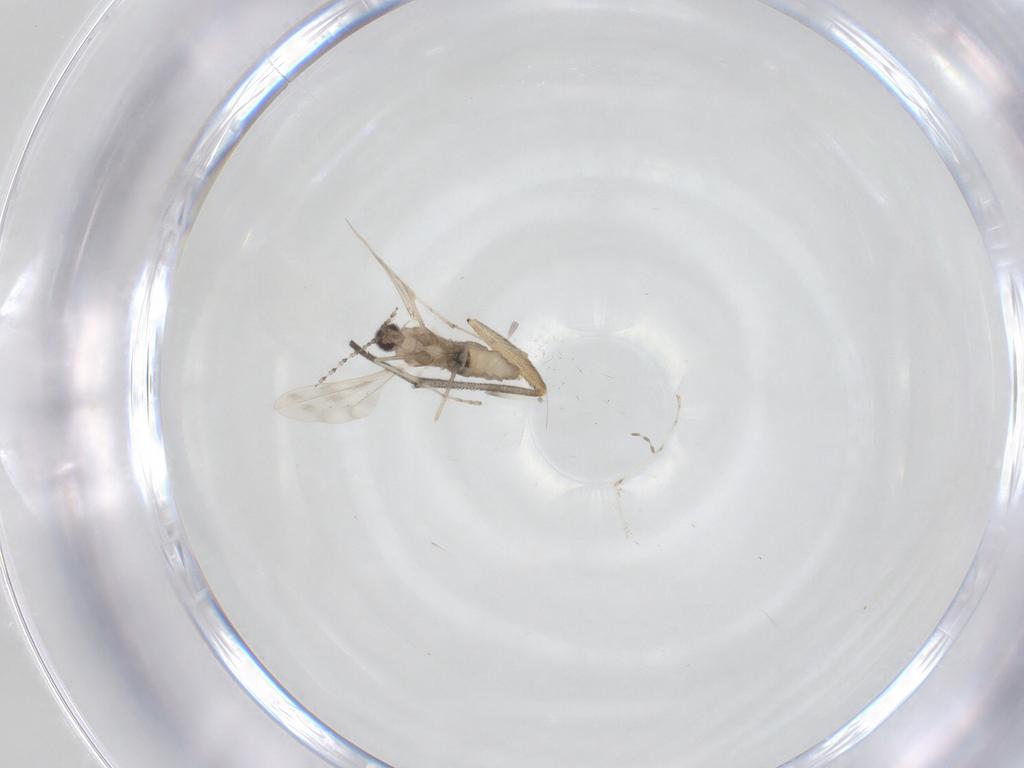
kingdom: Animalia
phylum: Arthropoda
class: Insecta
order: Diptera
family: Cecidomyiidae
